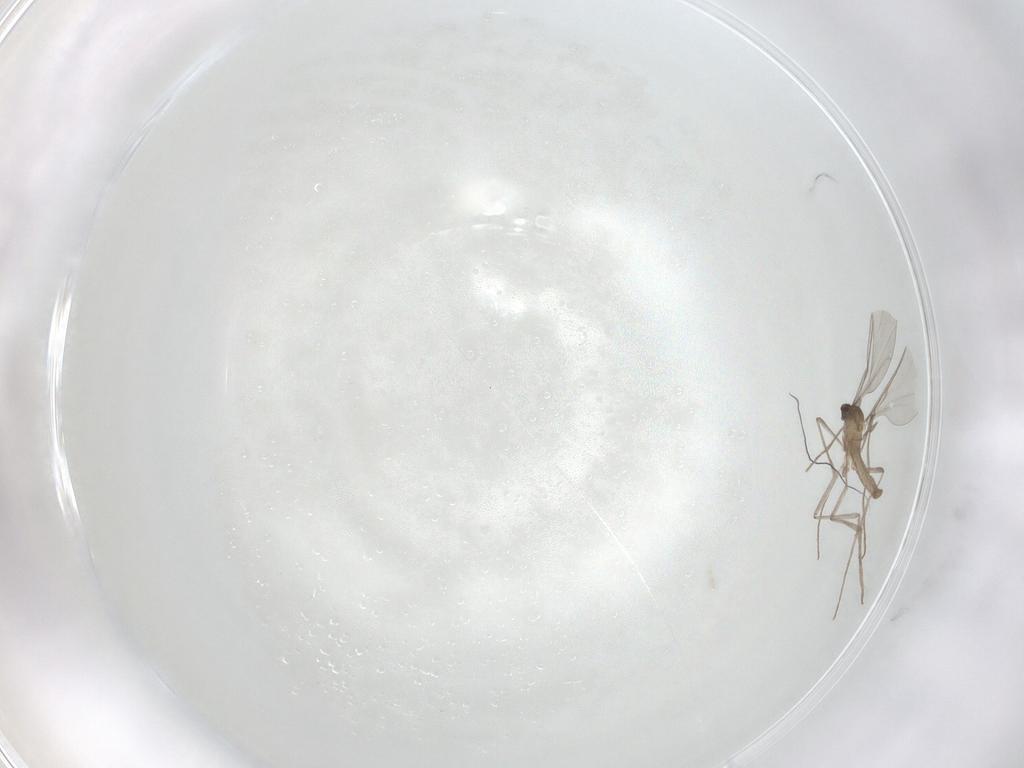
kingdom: Animalia
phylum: Arthropoda
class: Insecta
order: Diptera
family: Cecidomyiidae
